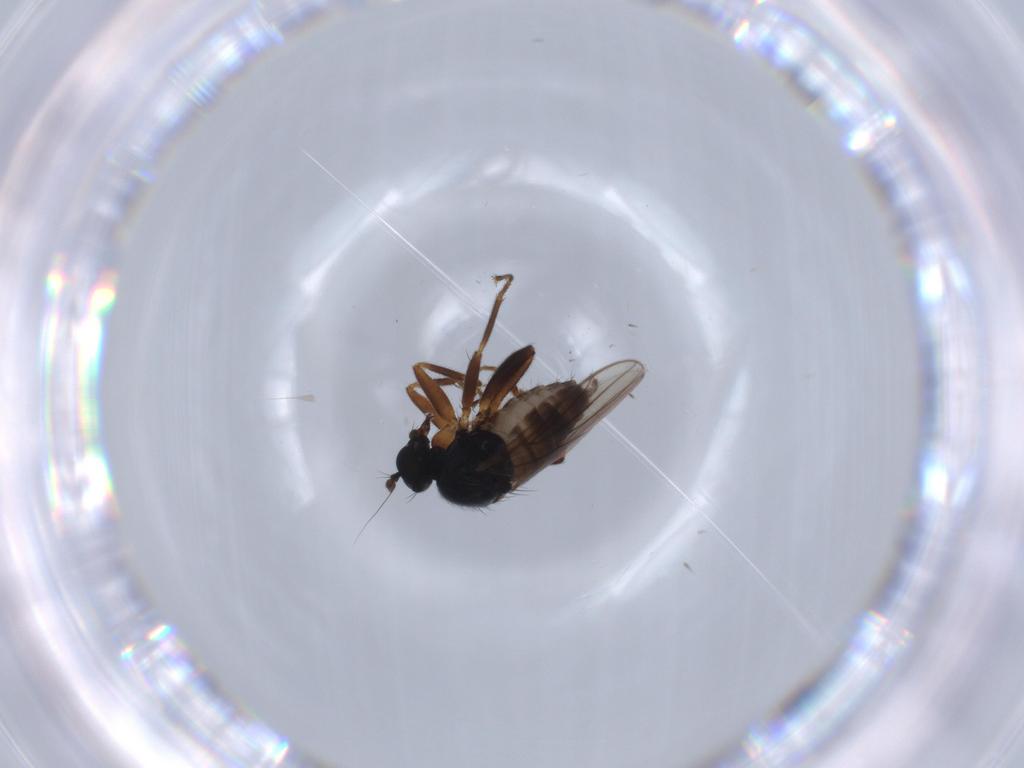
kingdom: Animalia
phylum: Arthropoda
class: Insecta
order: Diptera
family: Hybotidae
